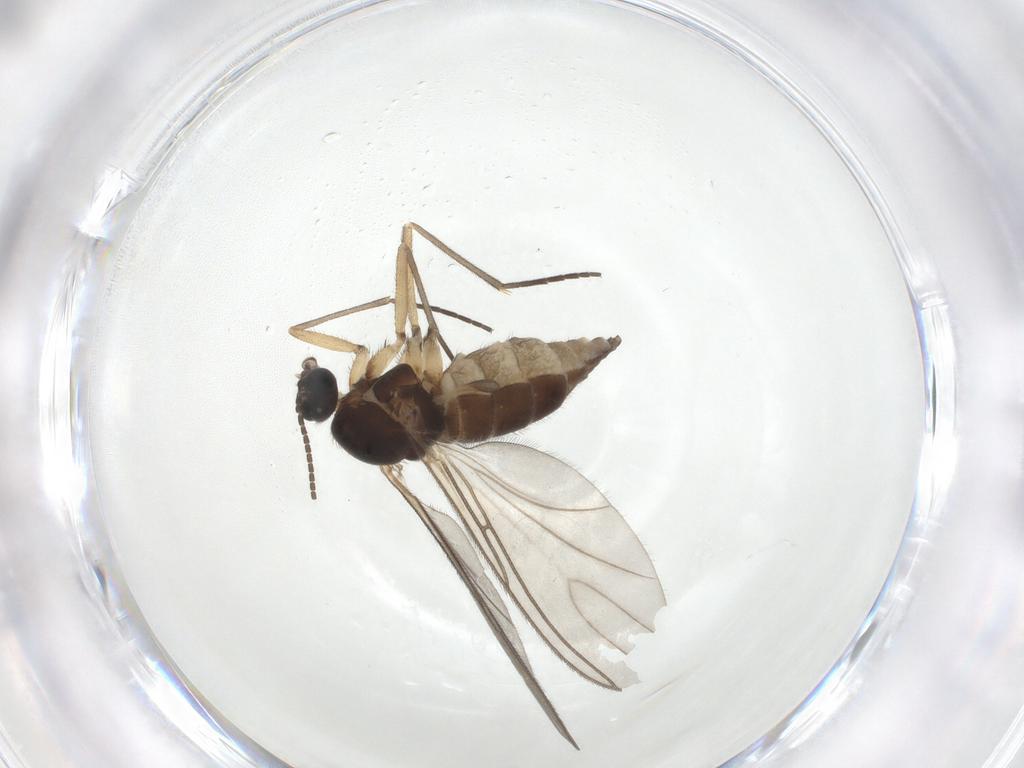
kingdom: Animalia
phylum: Arthropoda
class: Insecta
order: Diptera
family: Sciaridae
